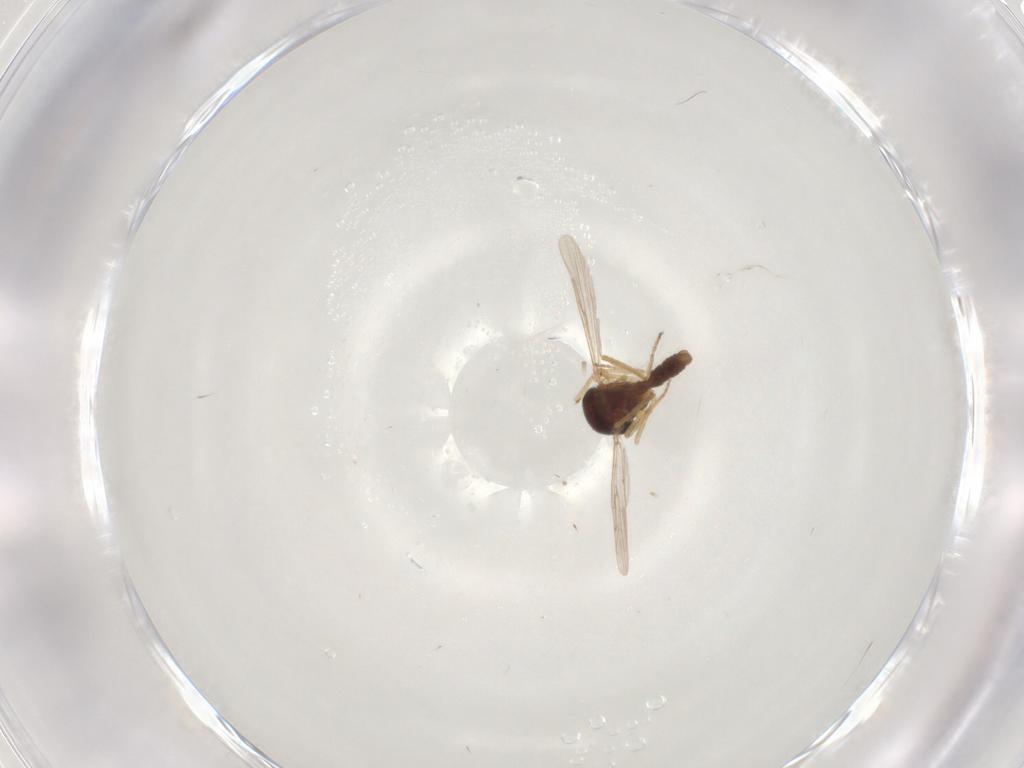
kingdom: Animalia
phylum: Arthropoda
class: Insecta
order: Diptera
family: Ceratopogonidae
